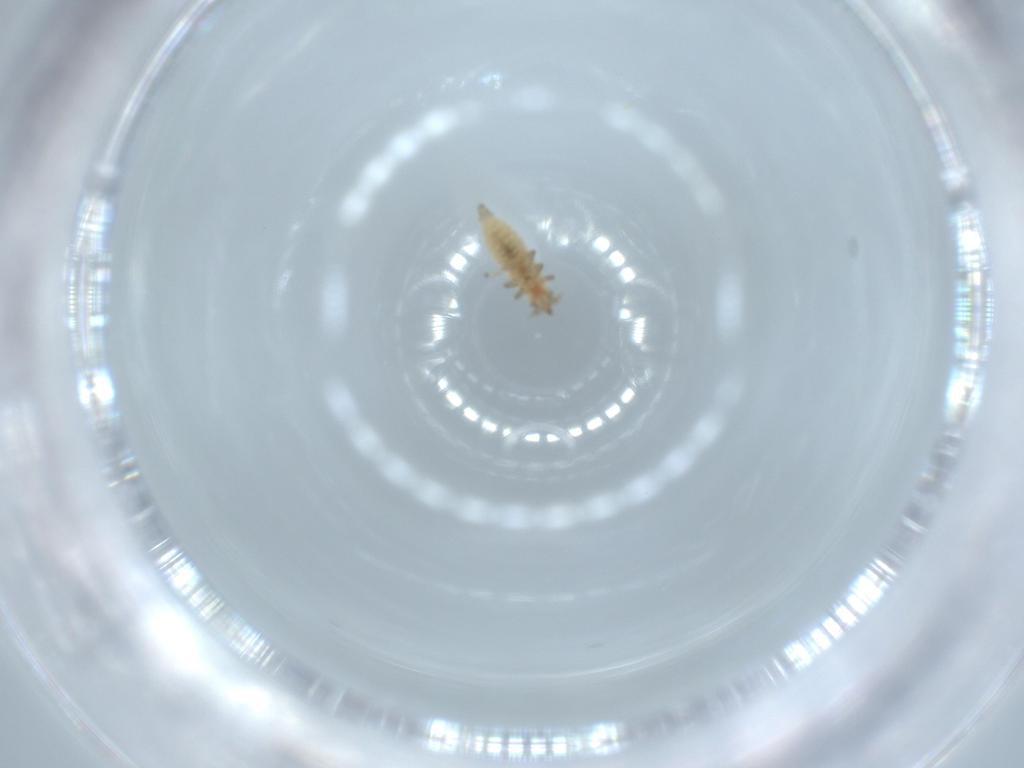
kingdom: Animalia
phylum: Arthropoda
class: Insecta
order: Neuroptera
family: Coniopterygidae
